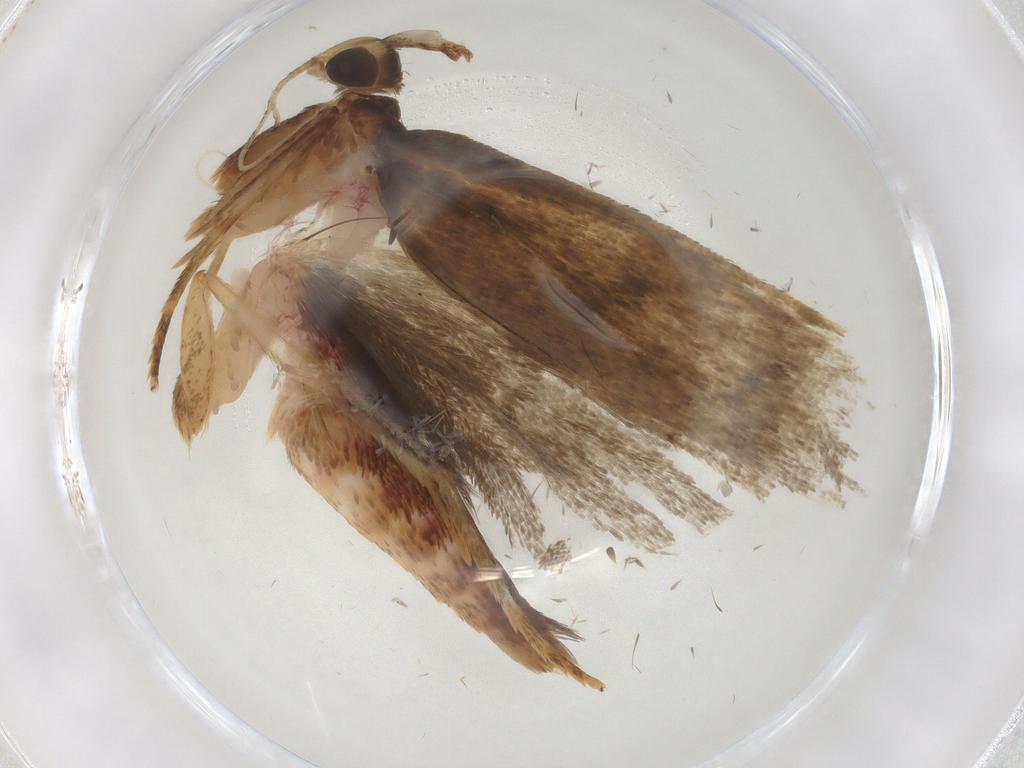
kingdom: Animalia
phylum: Arthropoda
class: Insecta
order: Lepidoptera
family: Autostichidae
